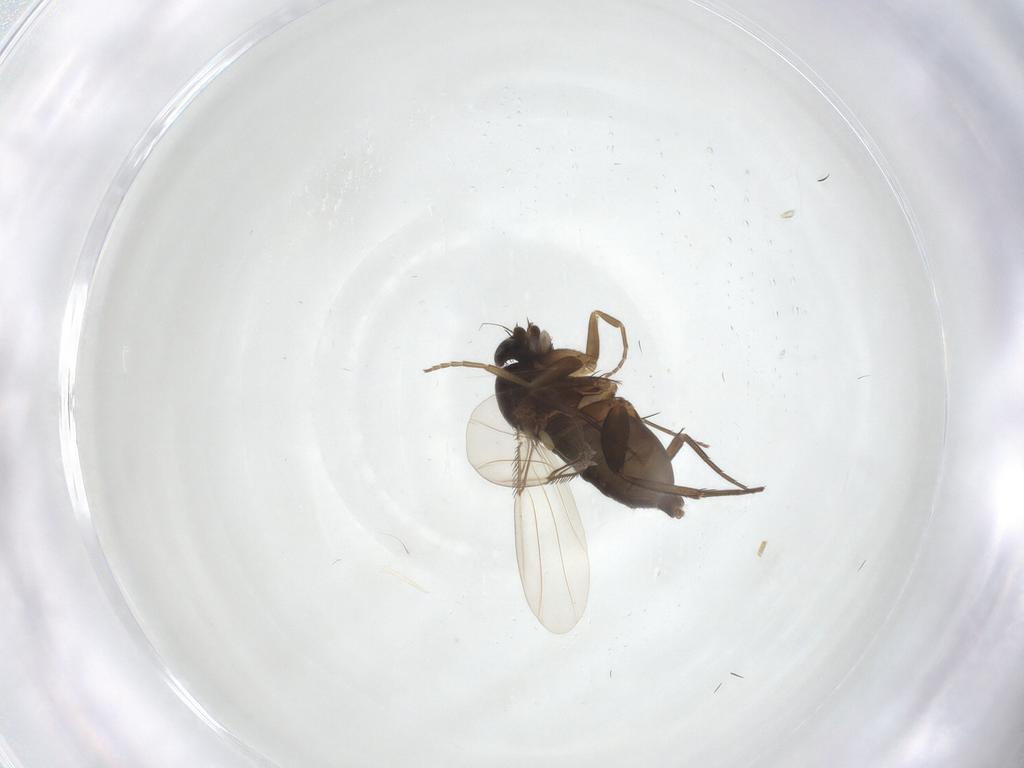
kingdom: Animalia
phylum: Arthropoda
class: Insecta
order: Diptera
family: Phoridae
